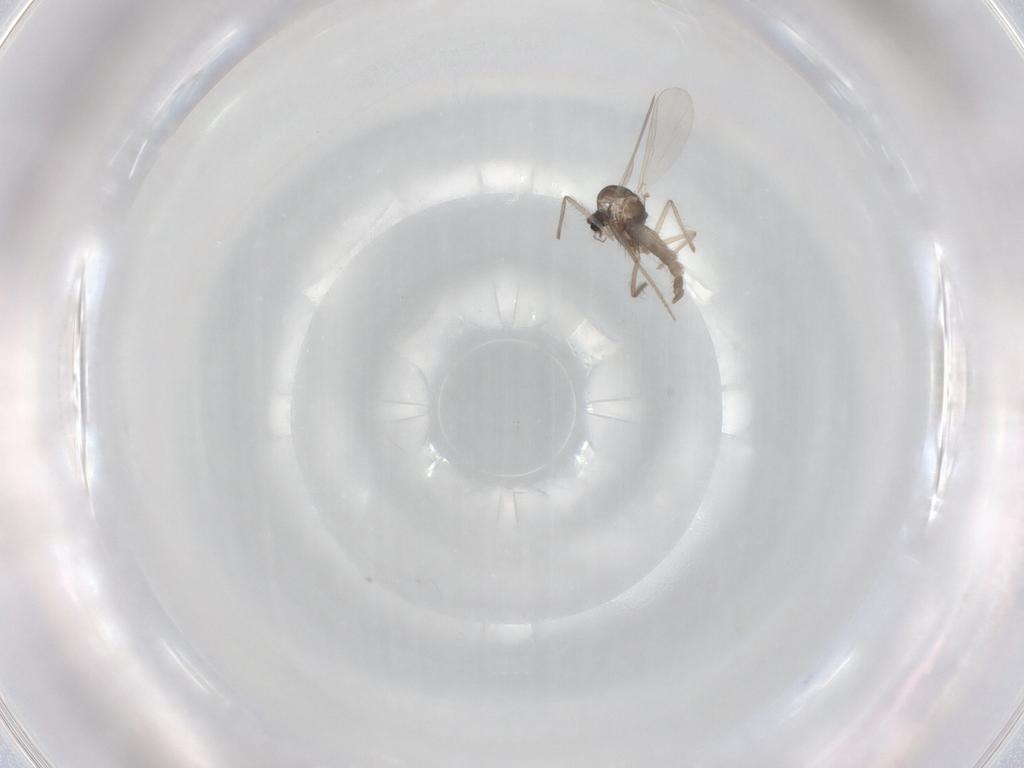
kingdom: Animalia
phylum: Arthropoda
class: Insecta
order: Diptera
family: Chironomidae
